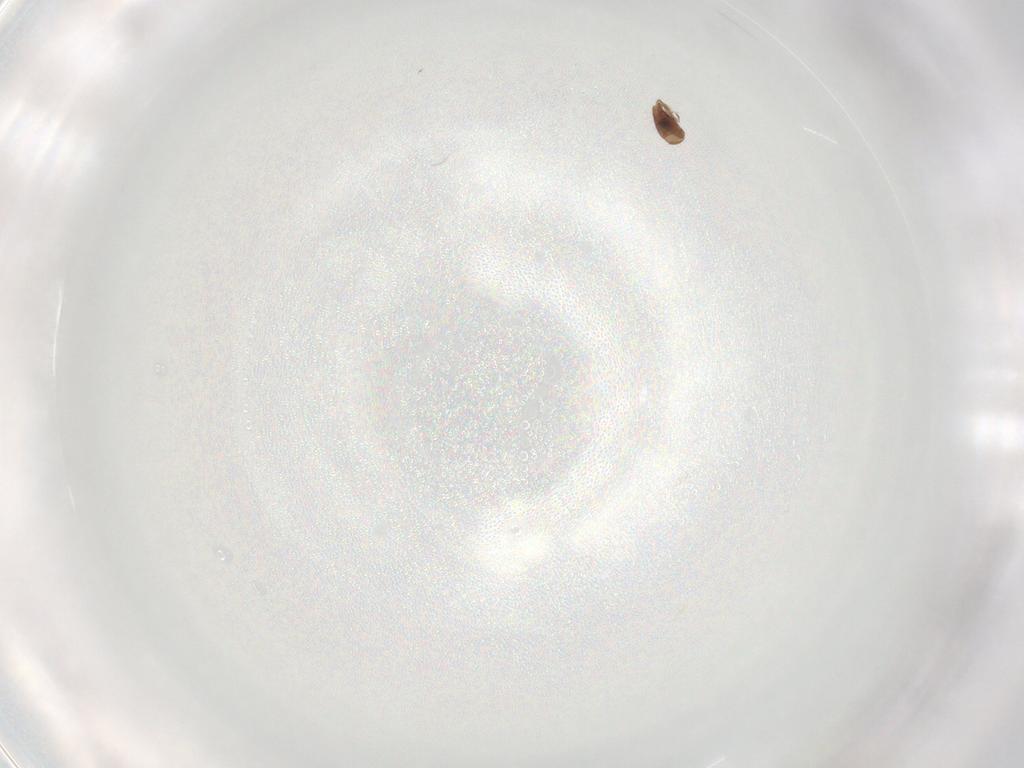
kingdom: Animalia
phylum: Arthropoda
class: Arachnida
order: Sarcoptiformes
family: Oribatulidae
